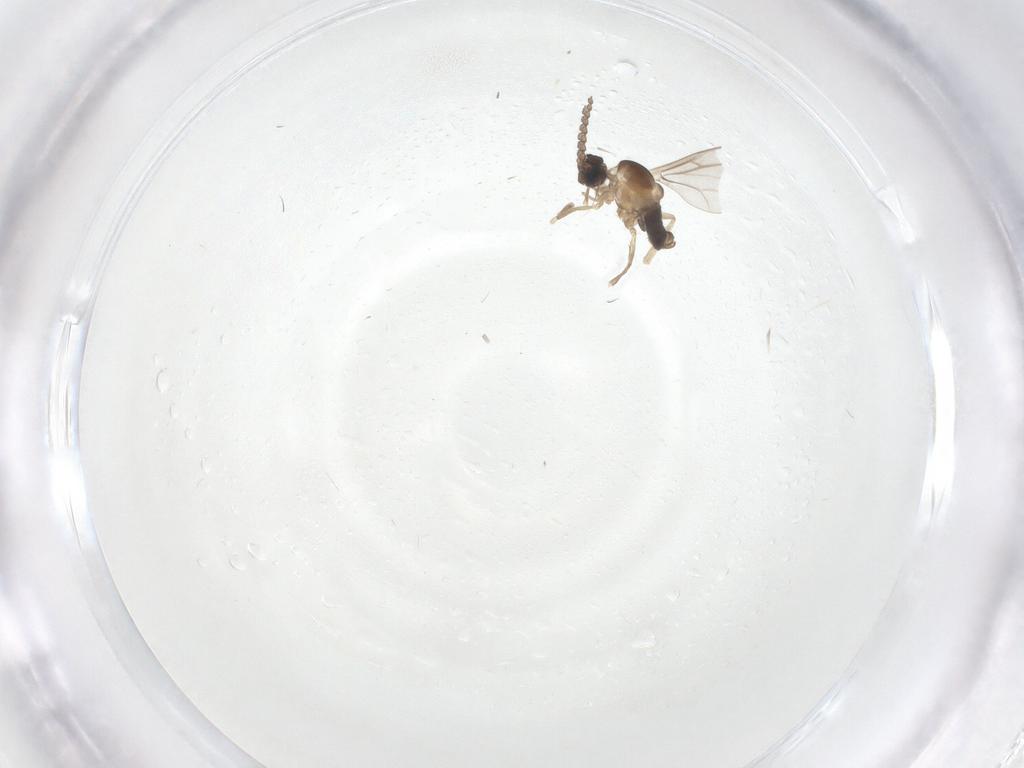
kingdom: Animalia
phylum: Arthropoda
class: Insecta
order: Diptera
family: Cecidomyiidae
